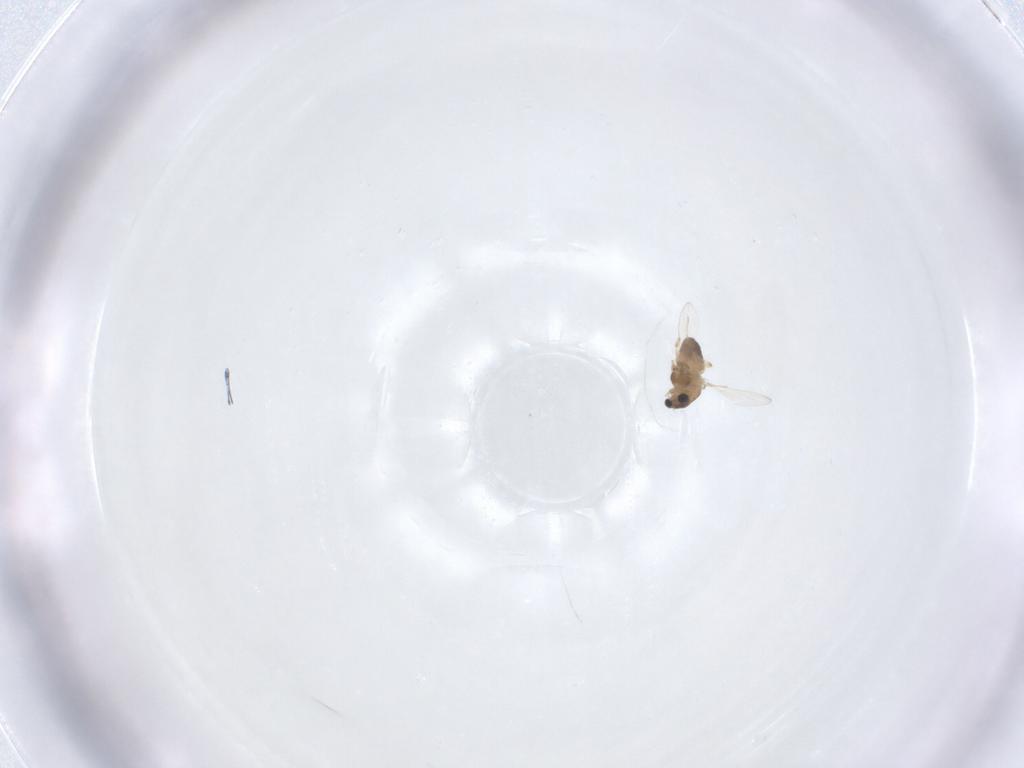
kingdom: Animalia
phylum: Arthropoda
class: Insecta
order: Diptera
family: Chironomidae
